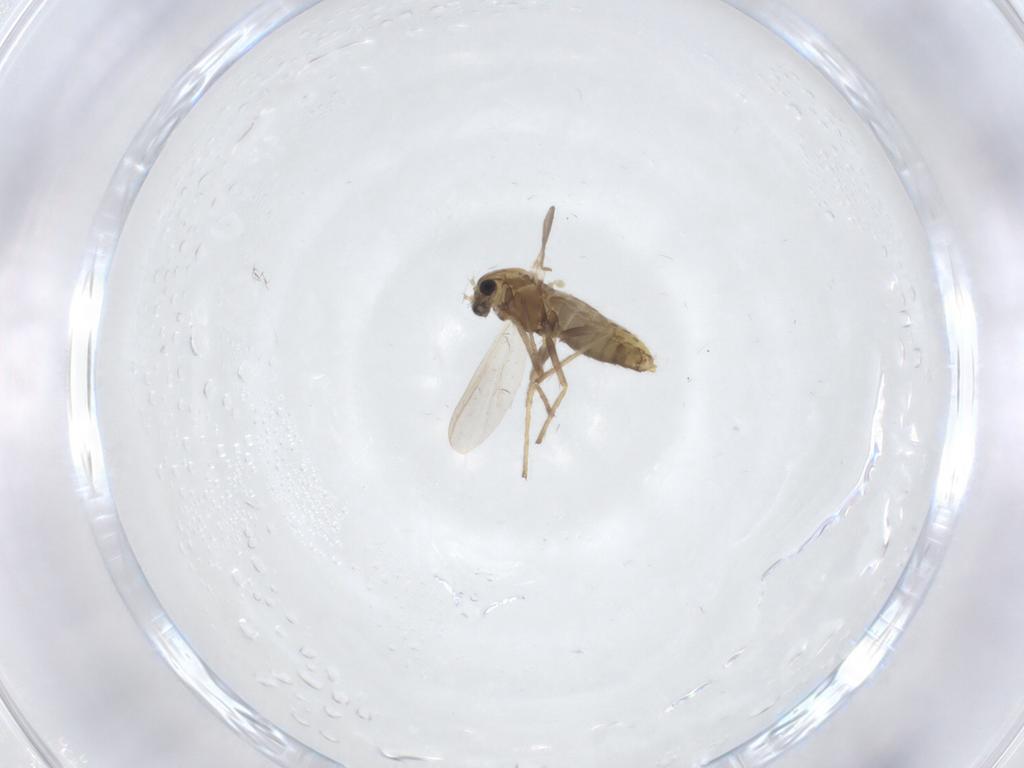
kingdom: Animalia
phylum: Arthropoda
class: Insecta
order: Diptera
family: Chironomidae
